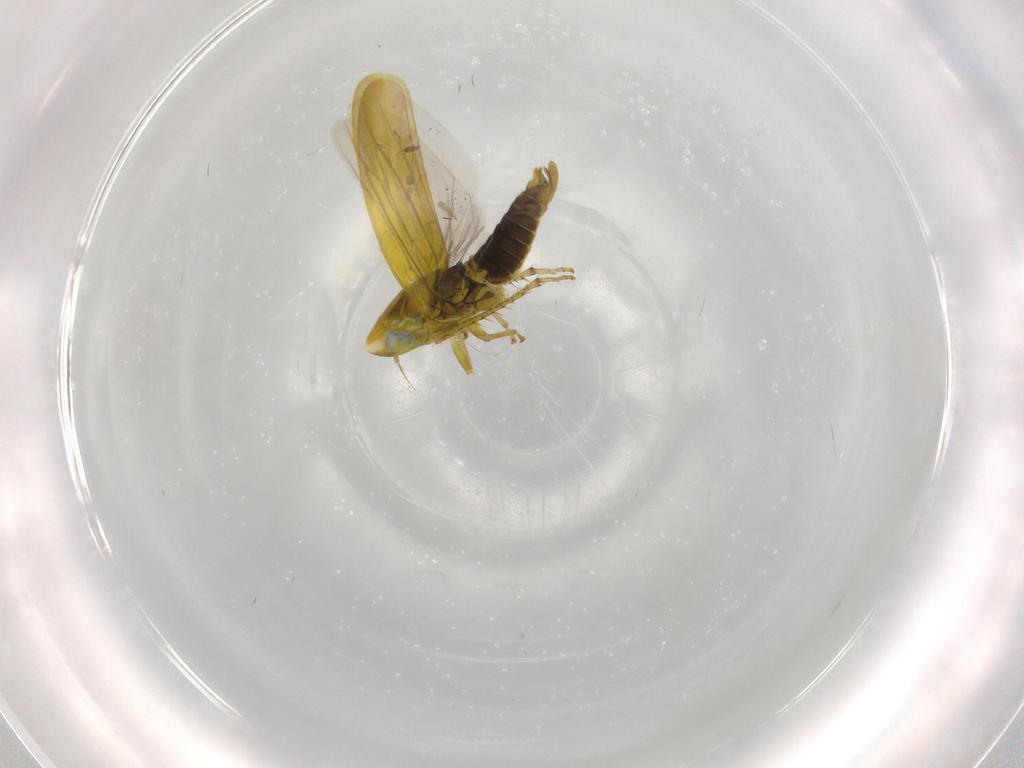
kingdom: Animalia
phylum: Arthropoda
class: Insecta
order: Hemiptera
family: Cicadellidae
